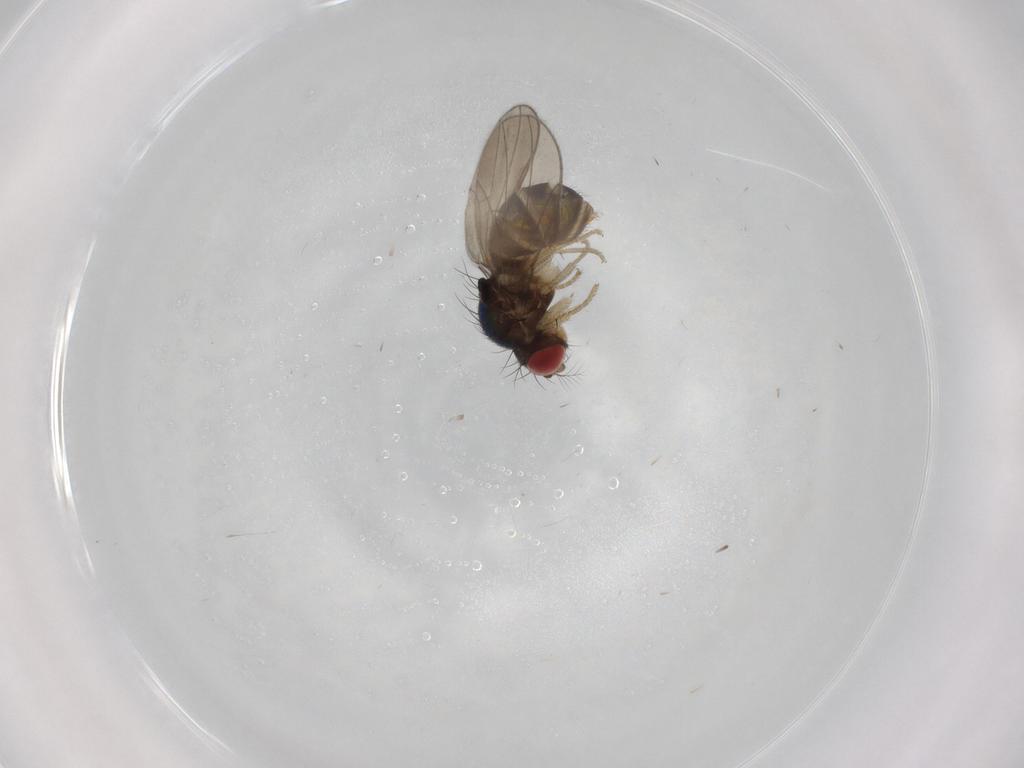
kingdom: Animalia
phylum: Arthropoda
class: Insecta
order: Diptera
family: Drosophilidae
